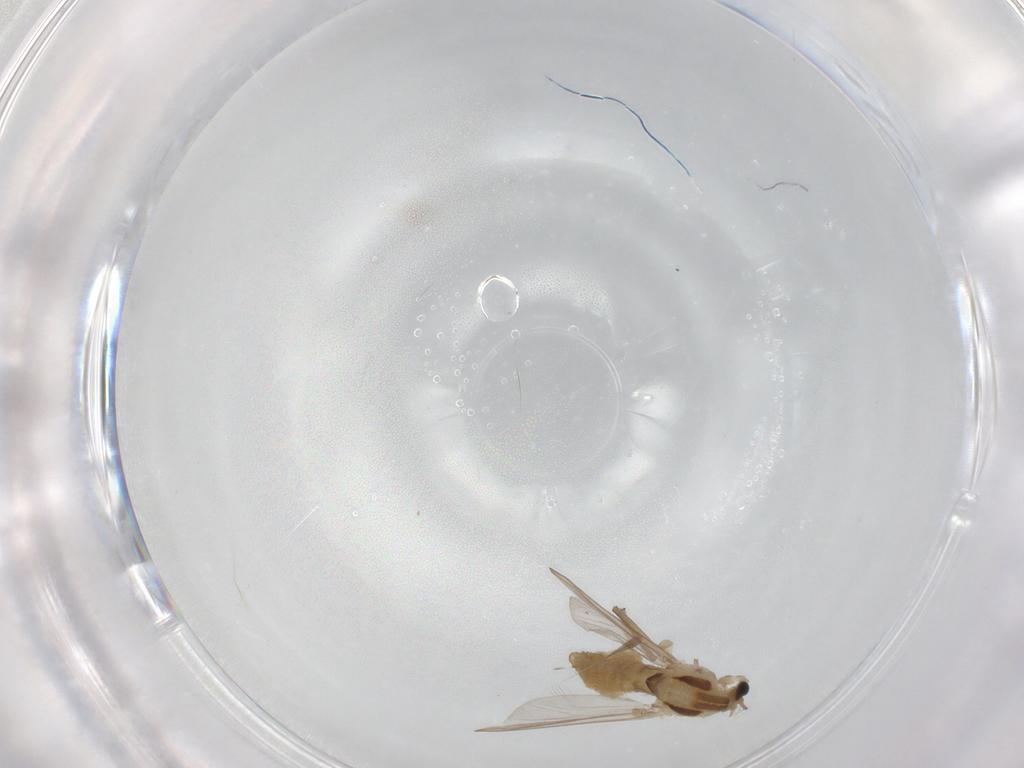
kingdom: Animalia
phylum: Arthropoda
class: Insecta
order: Diptera
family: Chironomidae
